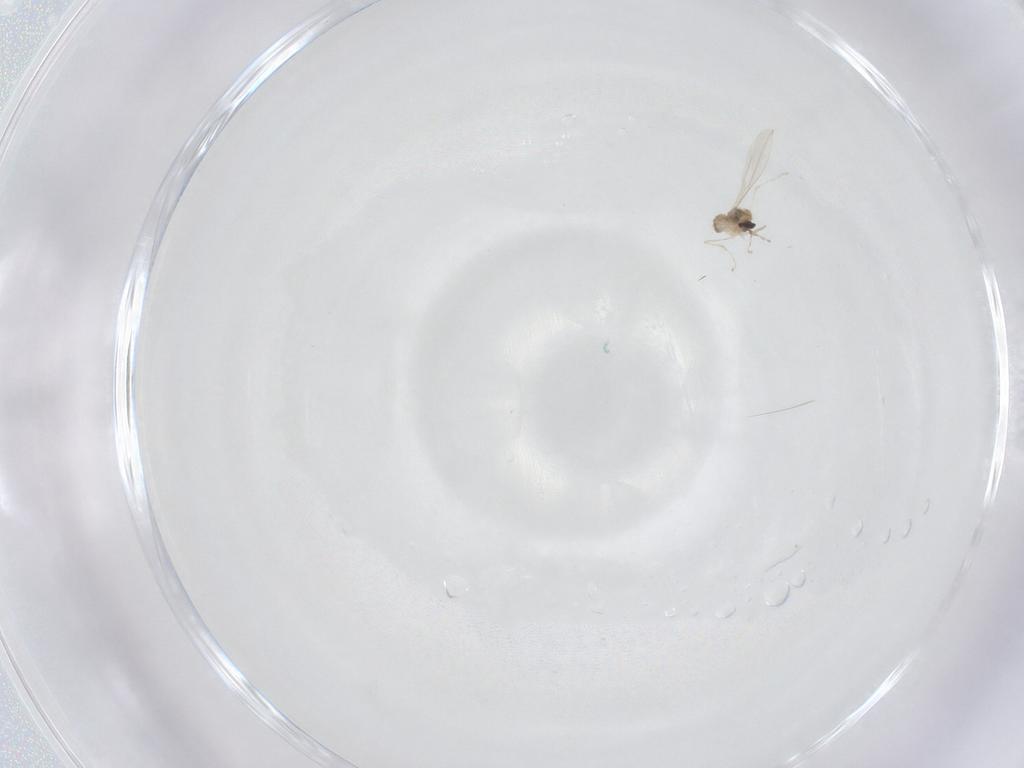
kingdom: Animalia
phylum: Arthropoda
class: Insecta
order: Diptera
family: Cecidomyiidae
